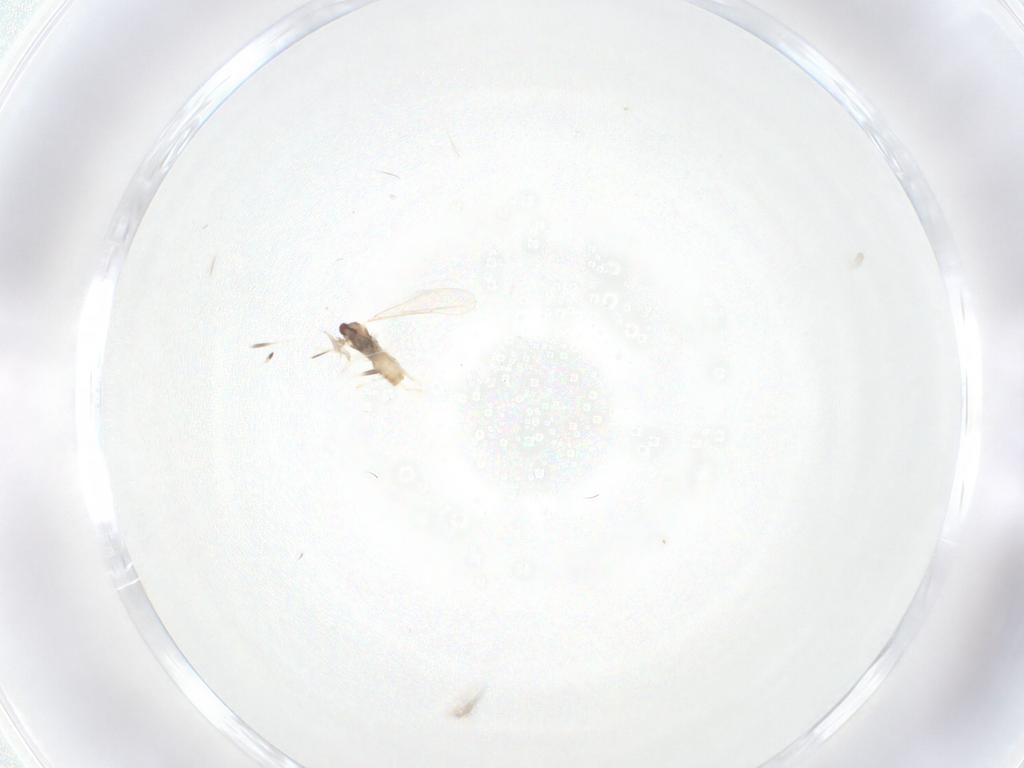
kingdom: Animalia
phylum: Arthropoda
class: Insecta
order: Diptera
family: Cecidomyiidae
